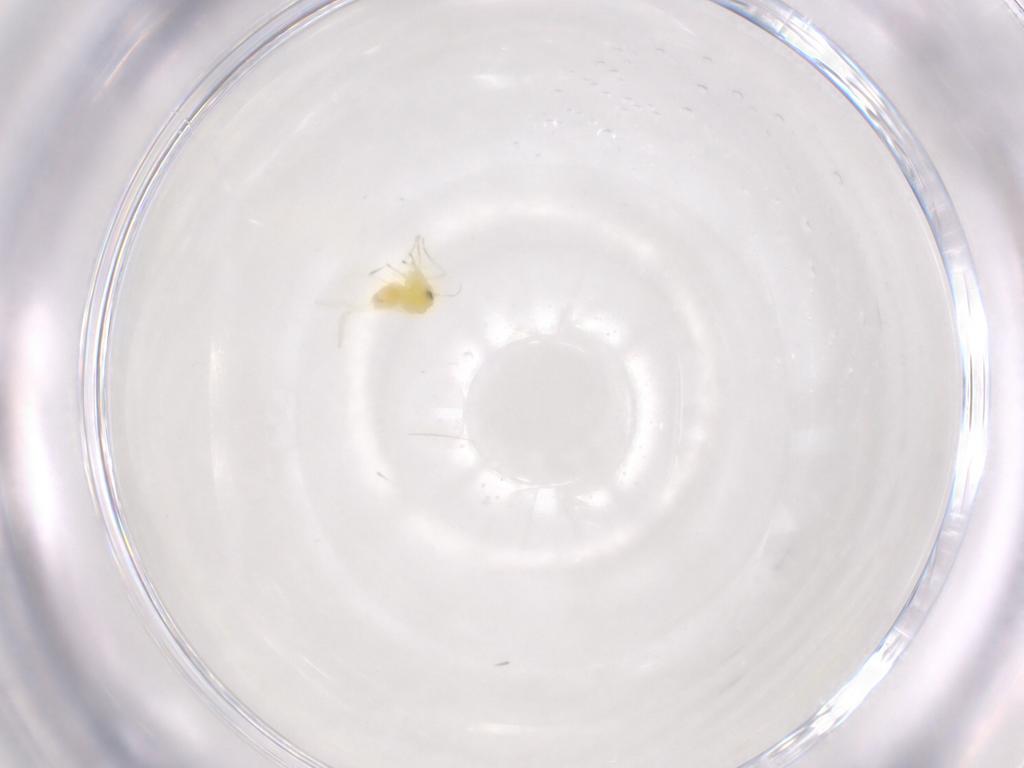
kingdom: Animalia
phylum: Arthropoda
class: Insecta
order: Hemiptera
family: Aleyrodidae
